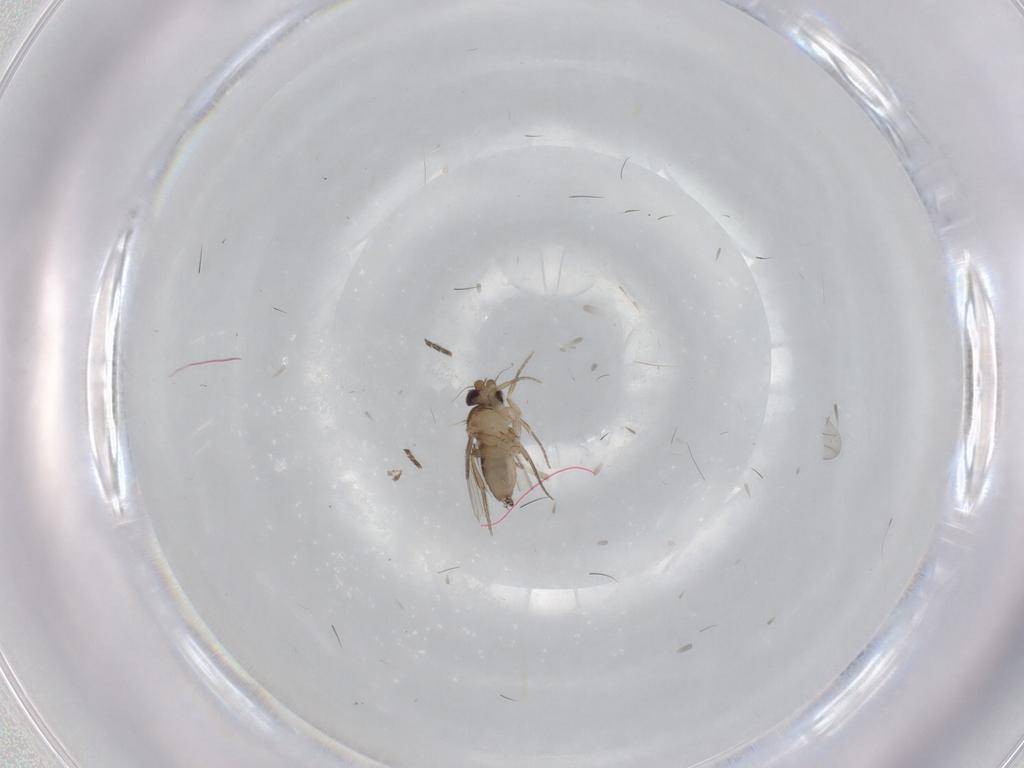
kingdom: Animalia
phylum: Arthropoda
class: Insecta
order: Diptera
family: Phoridae
